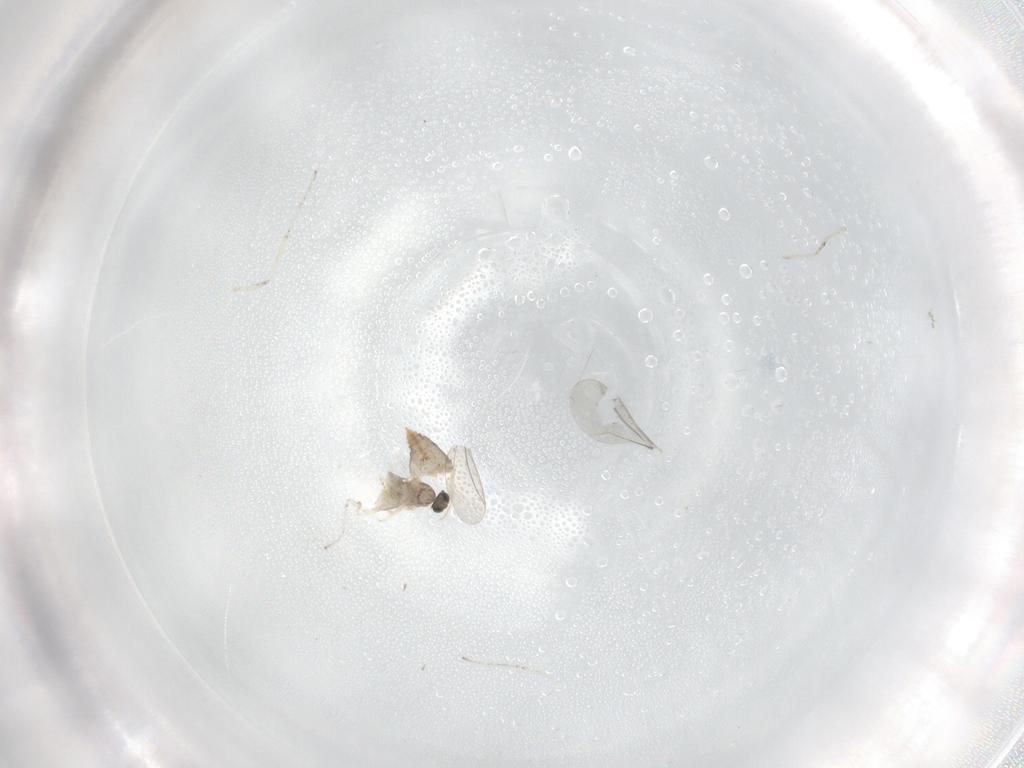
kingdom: Animalia
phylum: Arthropoda
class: Insecta
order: Diptera
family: Cecidomyiidae
